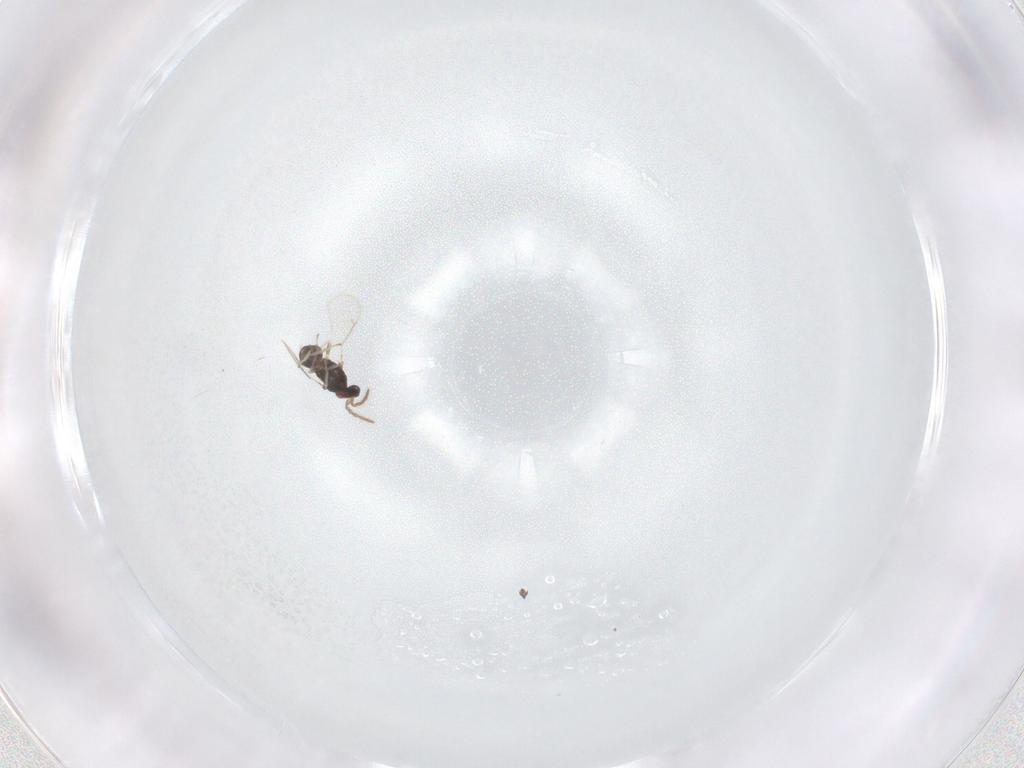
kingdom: Animalia
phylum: Arthropoda
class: Insecta
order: Hymenoptera
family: Eulophidae
